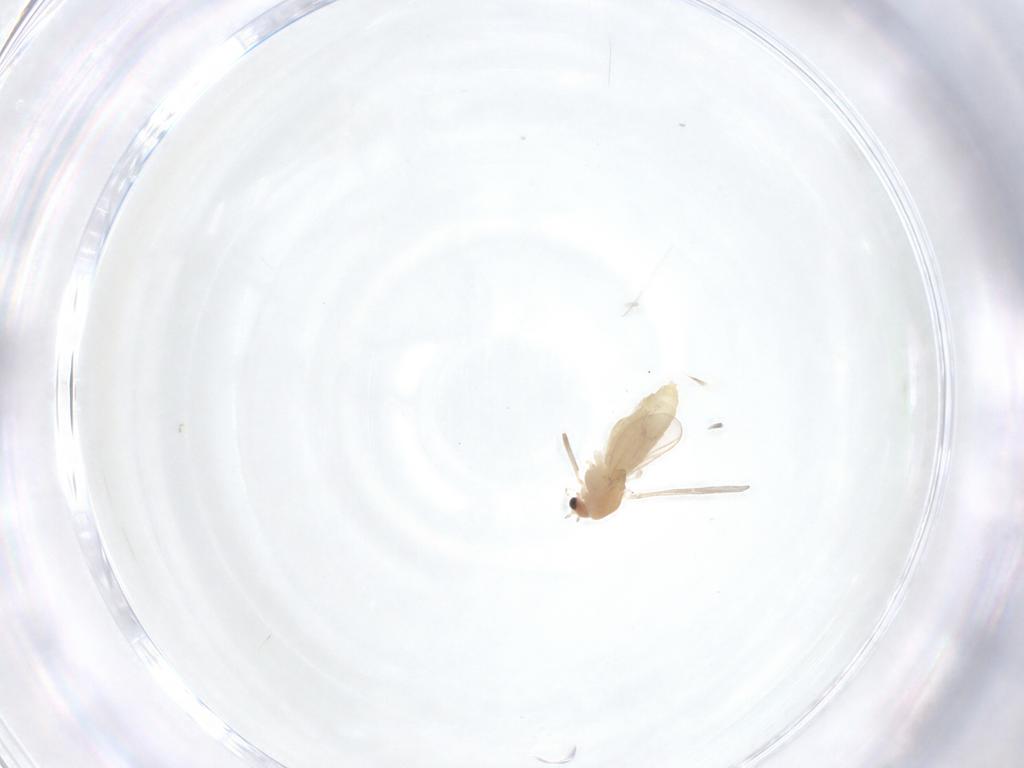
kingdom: Animalia
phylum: Arthropoda
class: Insecta
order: Diptera
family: Chironomidae
